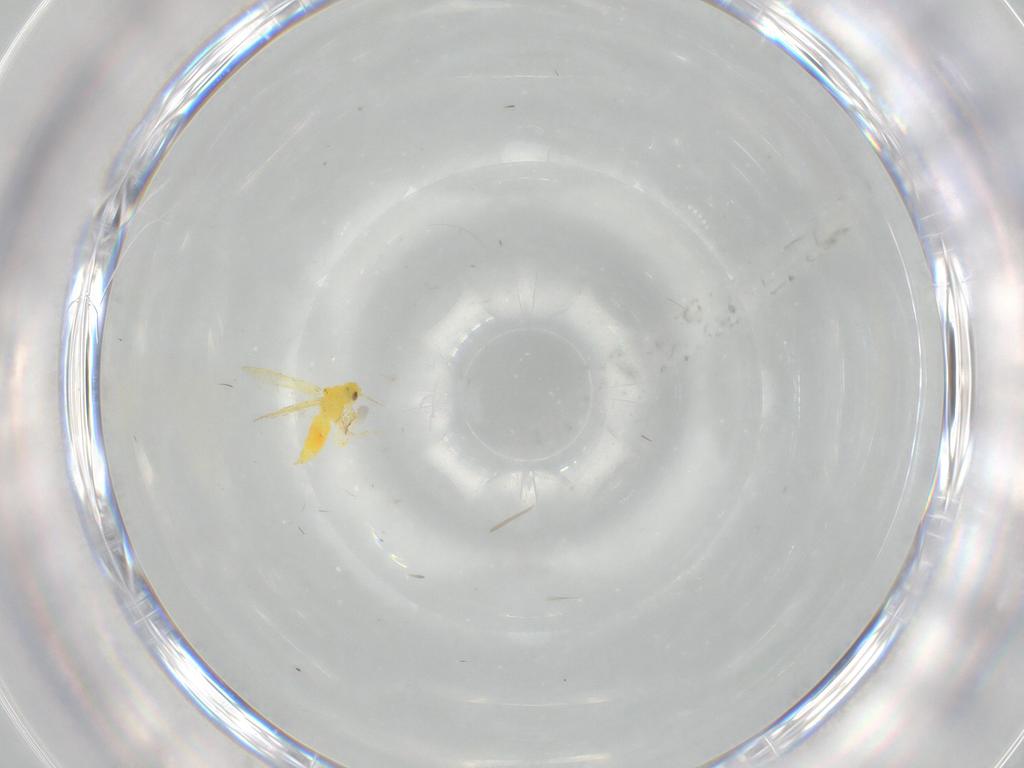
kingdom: Animalia
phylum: Arthropoda
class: Insecta
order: Hemiptera
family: Aleyrodidae
